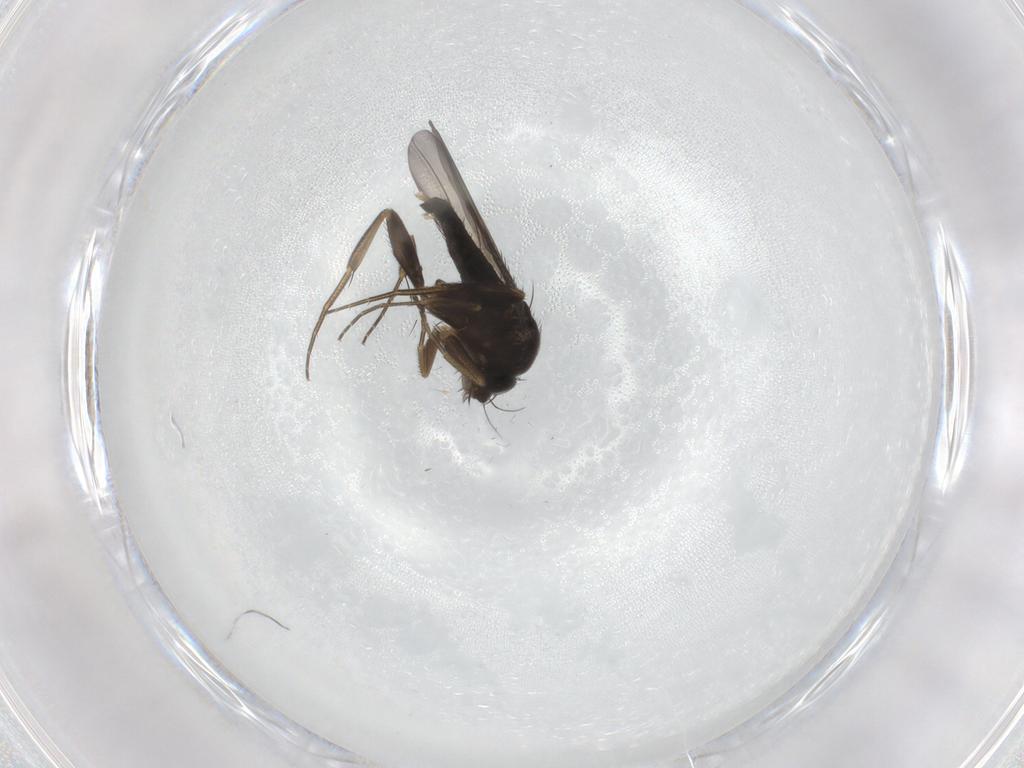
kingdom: Animalia
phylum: Arthropoda
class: Insecta
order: Diptera
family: Phoridae
